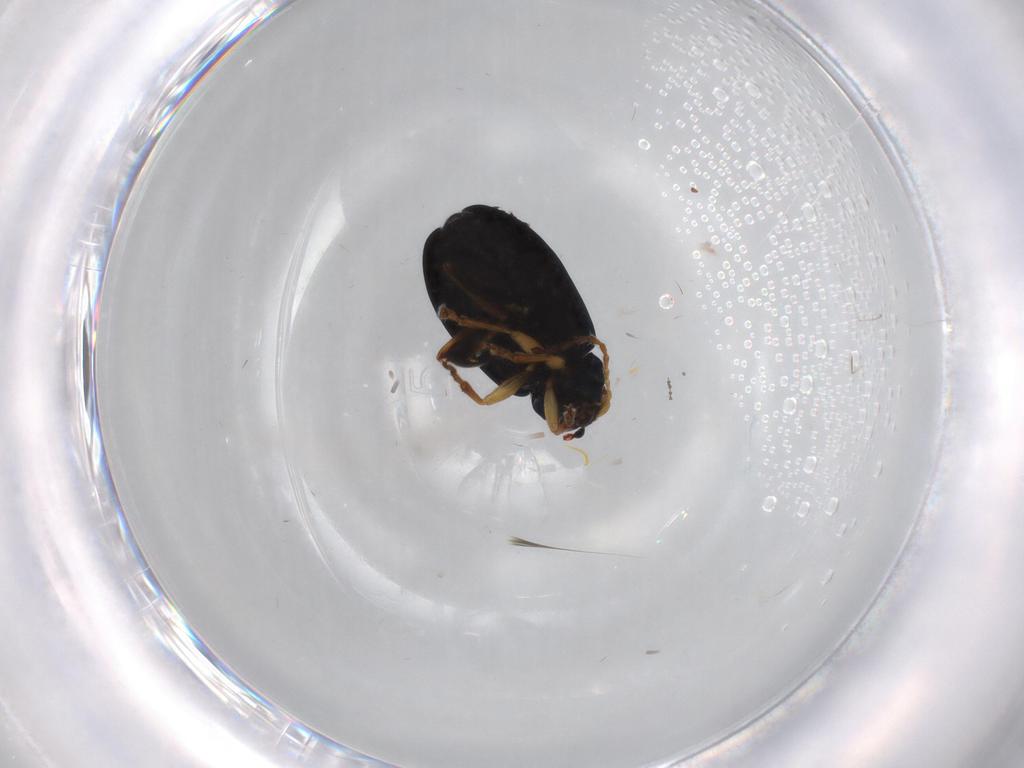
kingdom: Animalia
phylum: Arthropoda
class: Insecta
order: Coleoptera
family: Chrysomelidae
